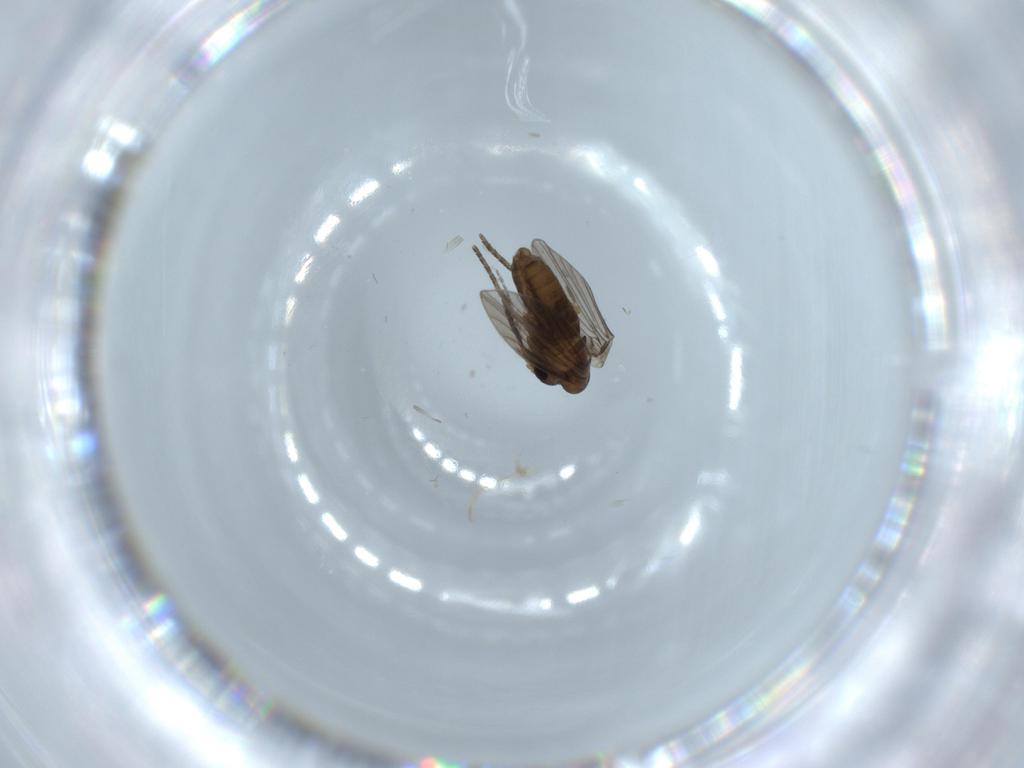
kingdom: Animalia
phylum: Arthropoda
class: Insecta
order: Diptera
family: Psychodidae
